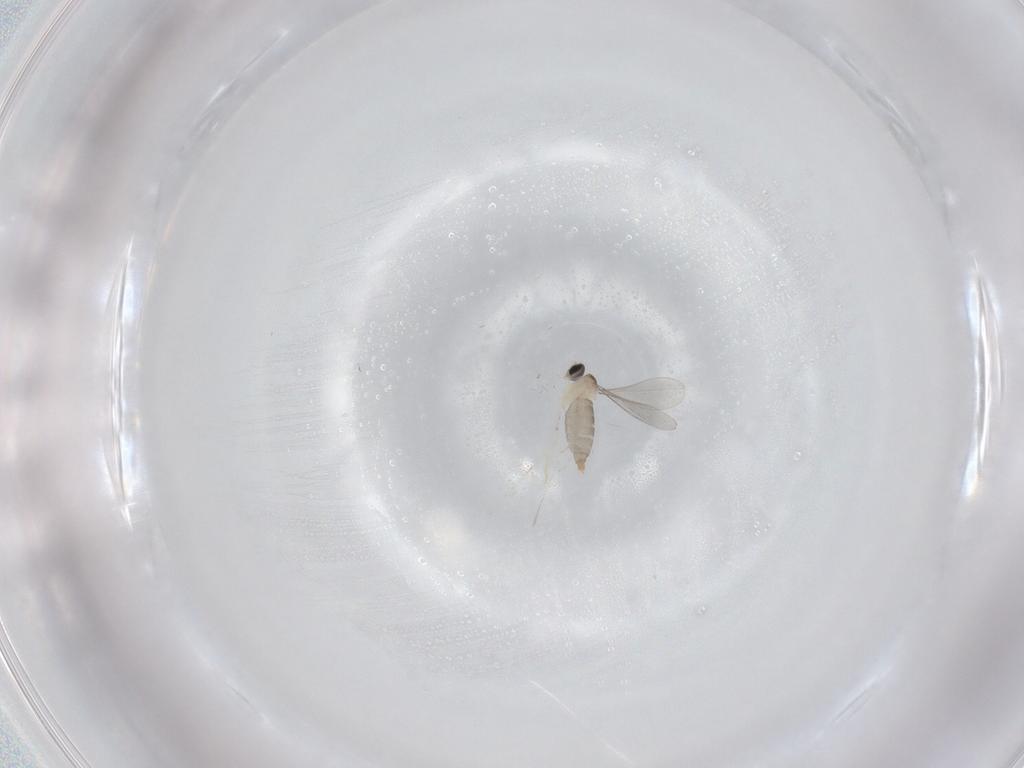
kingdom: Animalia
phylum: Arthropoda
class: Insecta
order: Diptera
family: Cecidomyiidae
